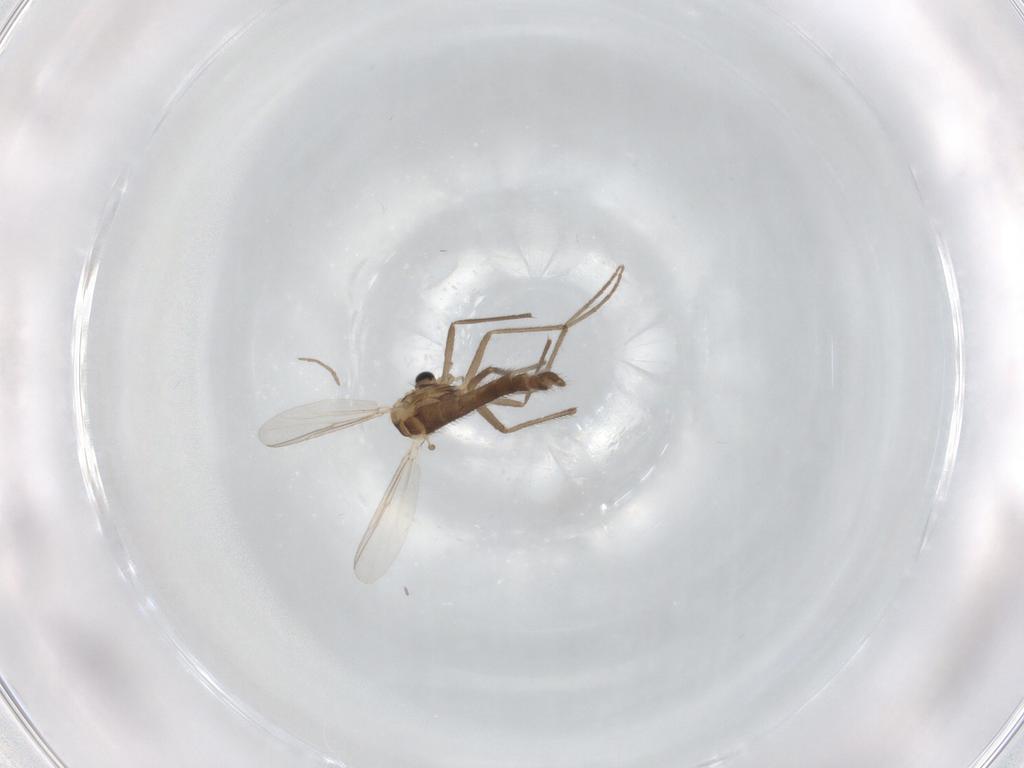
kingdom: Animalia
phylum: Arthropoda
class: Insecta
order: Diptera
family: Chironomidae
